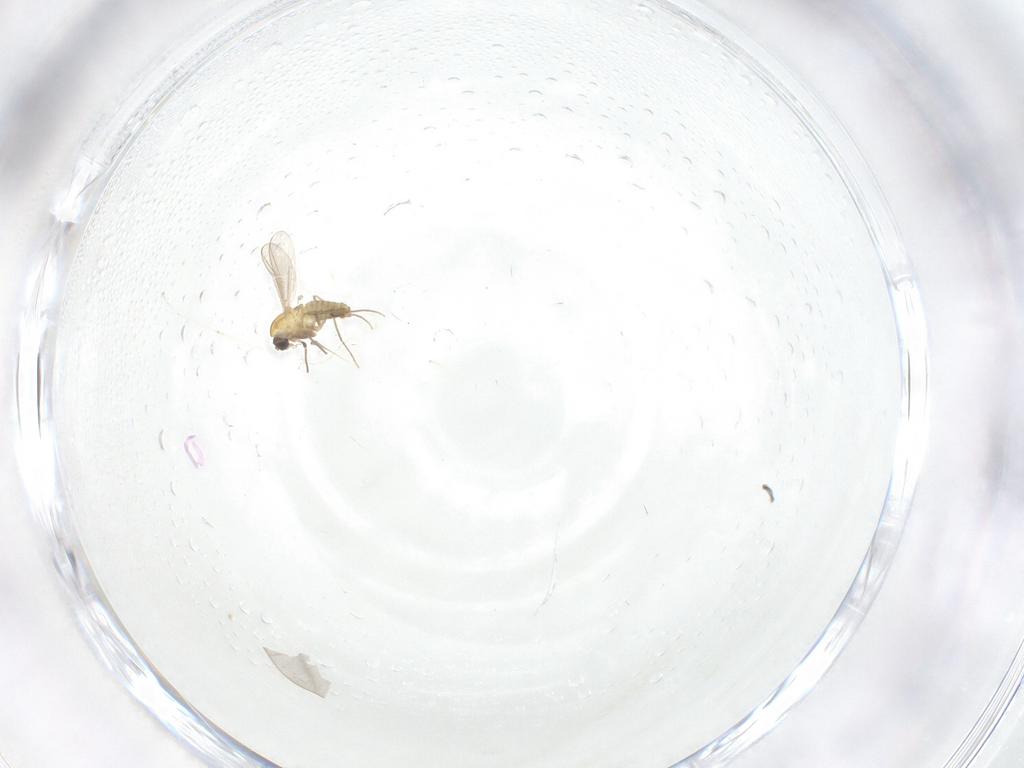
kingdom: Animalia
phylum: Arthropoda
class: Insecta
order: Diptera
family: Cecidomyiidae
